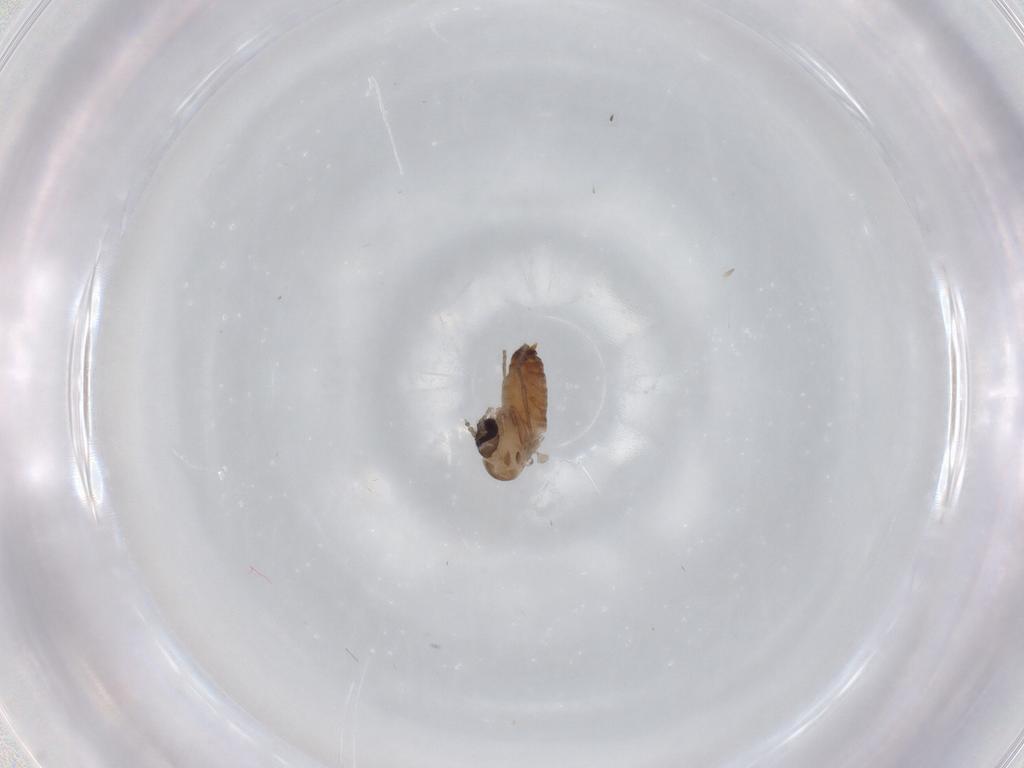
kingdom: Animalia
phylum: Arthropoda
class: Insecta
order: Diptera
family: Psychodidae
